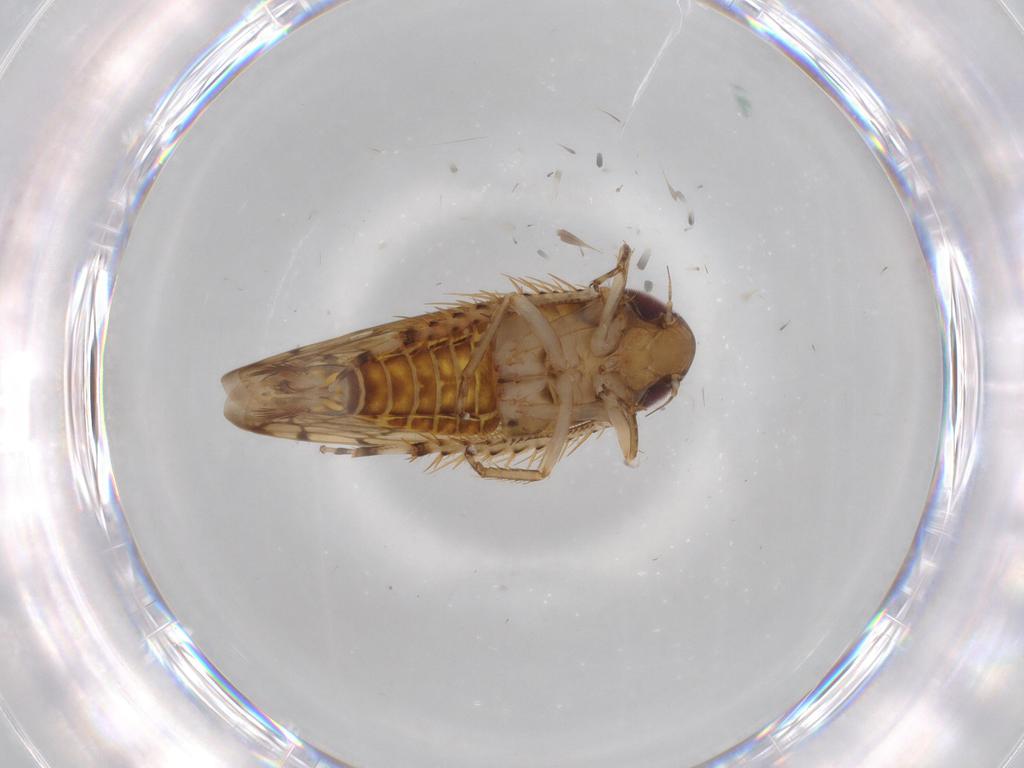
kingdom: Animalia
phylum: Arthropoda
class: Insecta
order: Hemiptera
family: Cicadellidae
